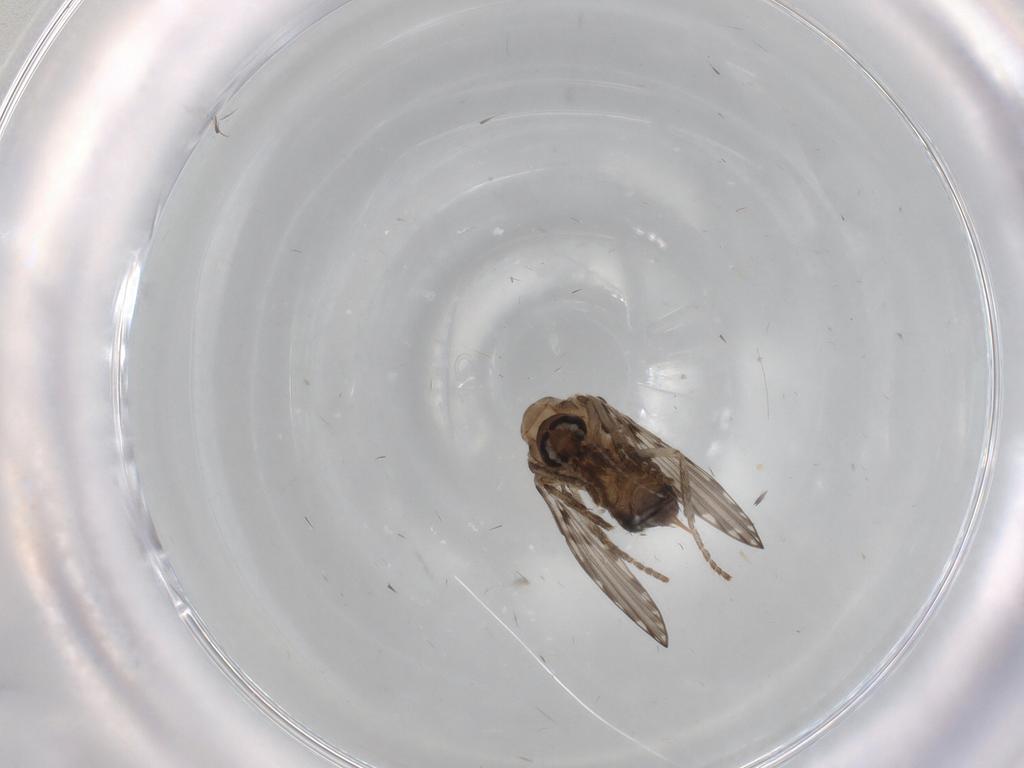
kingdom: Animalia
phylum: Arthropoda
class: Insecta
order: Diptera
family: Psychodidae
